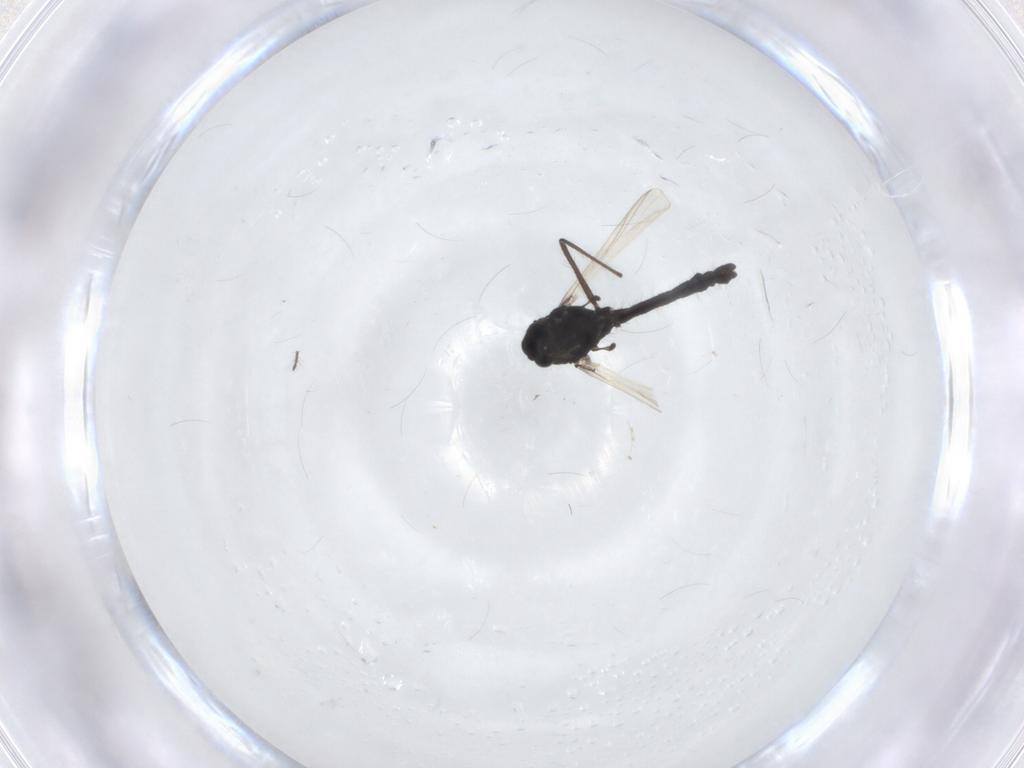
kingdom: Animalia
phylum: Arthropoda
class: Insecta
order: Diptera
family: Chironomidae
